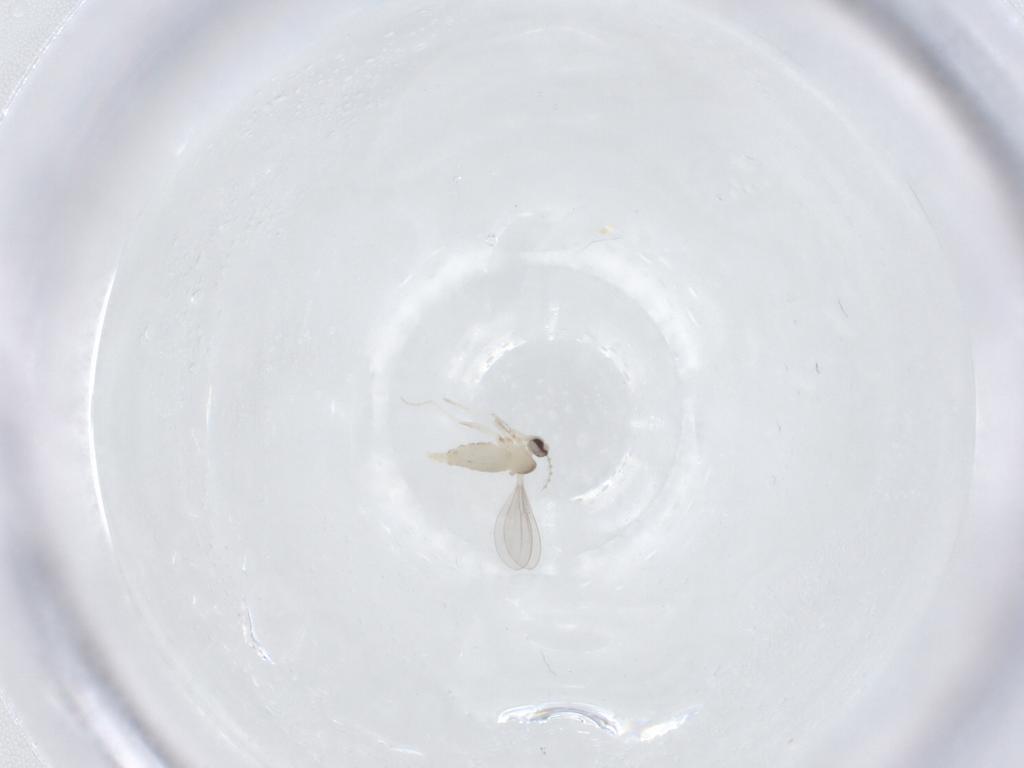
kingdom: Animalia
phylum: Arthropoda
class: Insecta
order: Diptera
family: Cecidomyiidae
